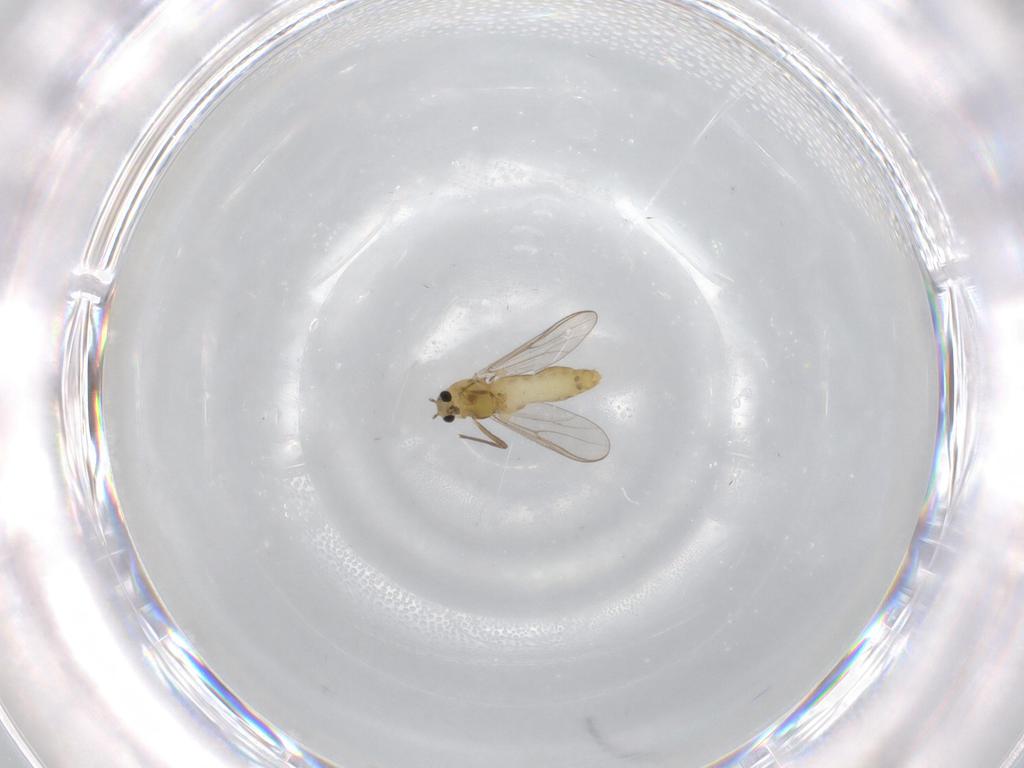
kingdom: Animalia
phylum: Arthropoda
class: Insecta
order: Diptera
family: Chironomidae
